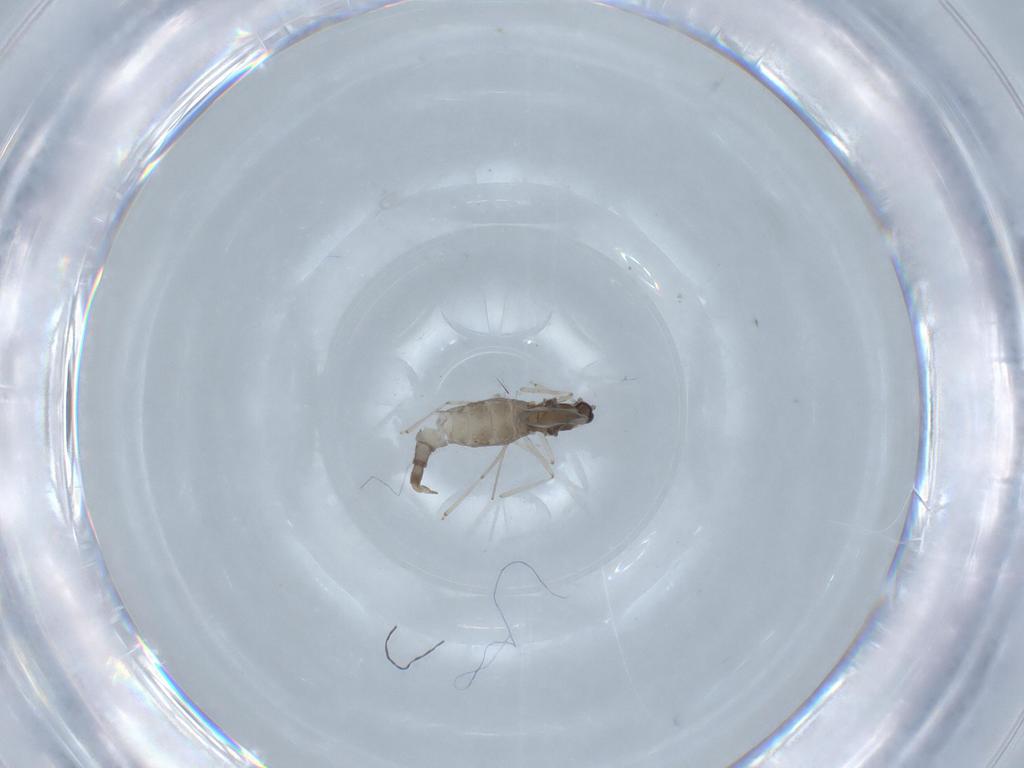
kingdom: Animalia
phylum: Arthropoda
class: Insecta
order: Diptera
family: Cecidomyiidae
